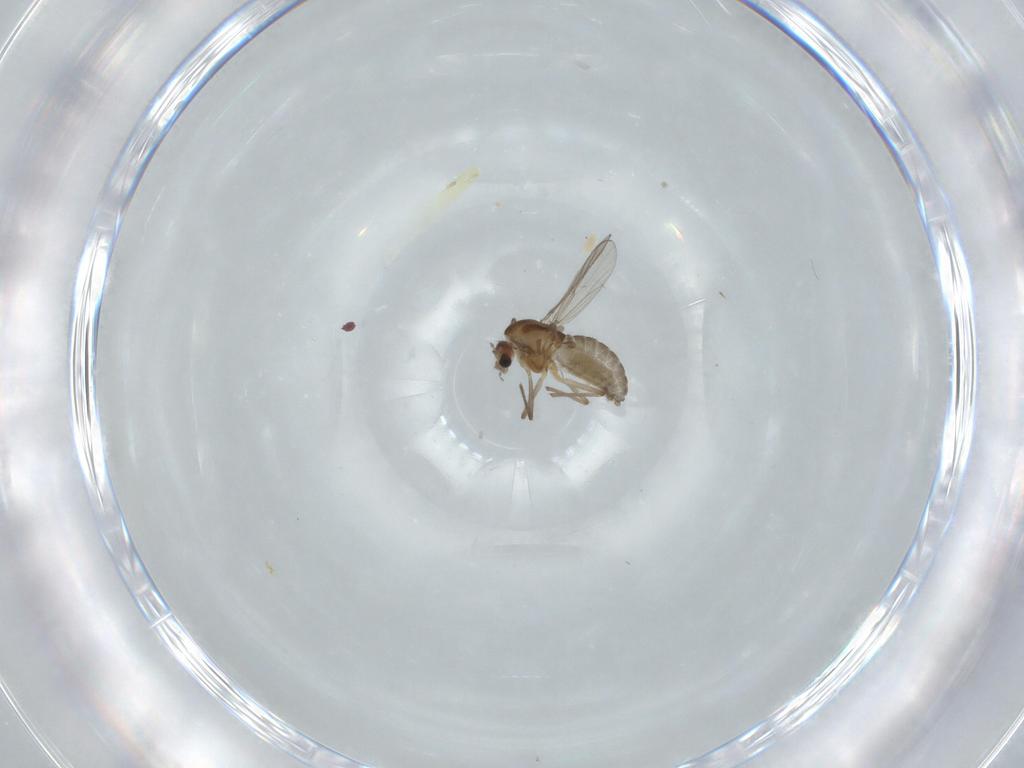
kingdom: Animalia
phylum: Arthropoda
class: Insecta
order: Diptera
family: Chironomidae
